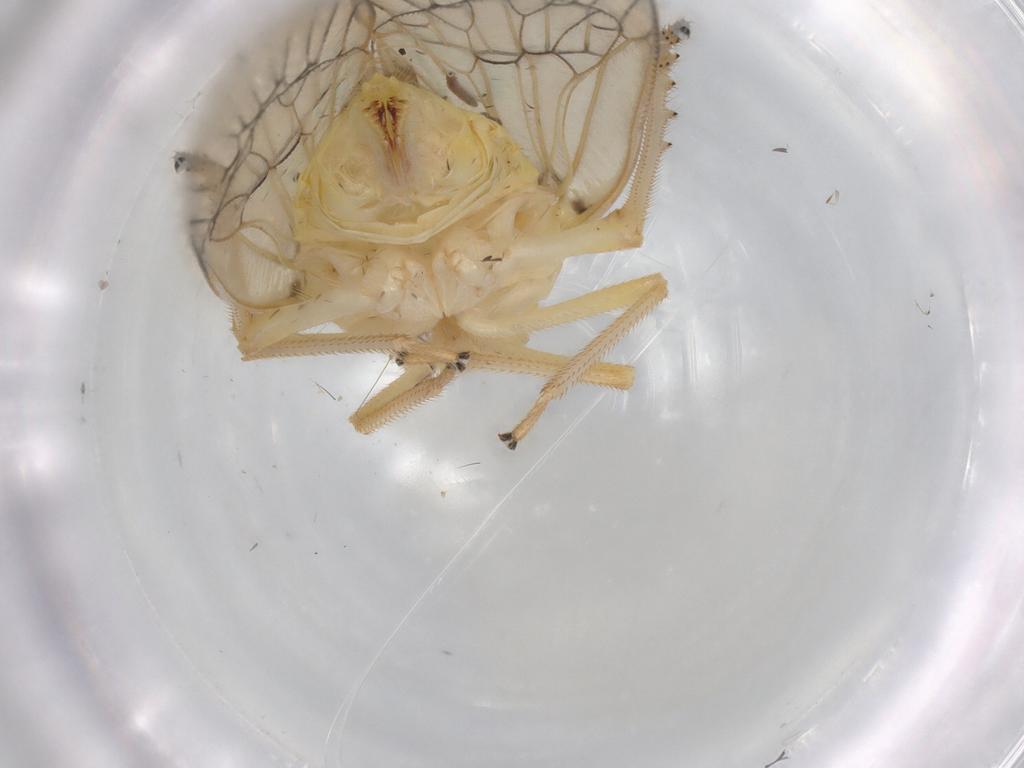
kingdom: Animalia
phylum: Arthropoda
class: Insecta
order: Hemiptera
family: Tropiduchidae
